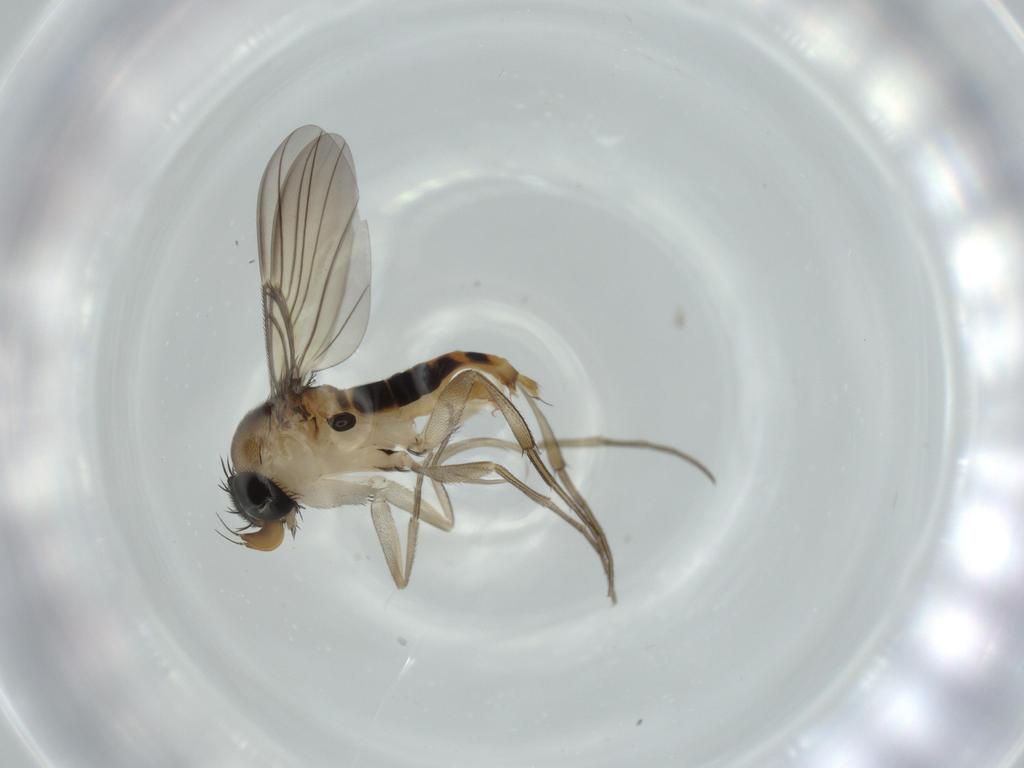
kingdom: Animalia
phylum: Arthropoda
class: Insecta
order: Diptera
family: Phoridae
